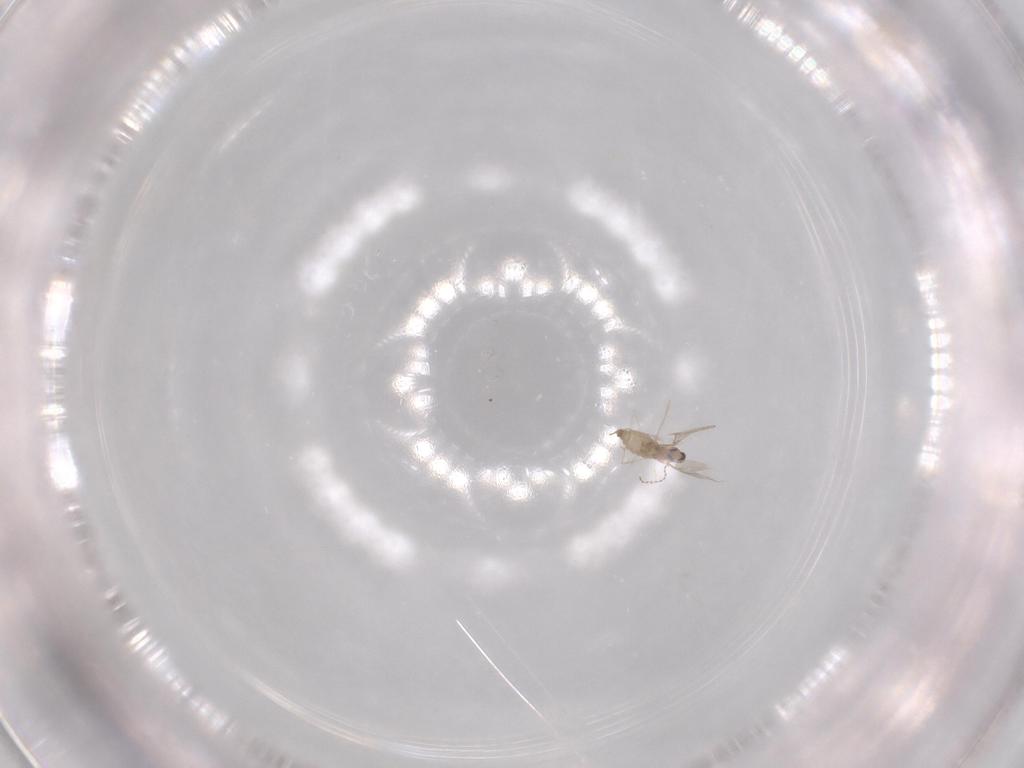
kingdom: Animalia
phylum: Arthropoda
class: Insecta
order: Diptera
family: Cecidomyiidae
